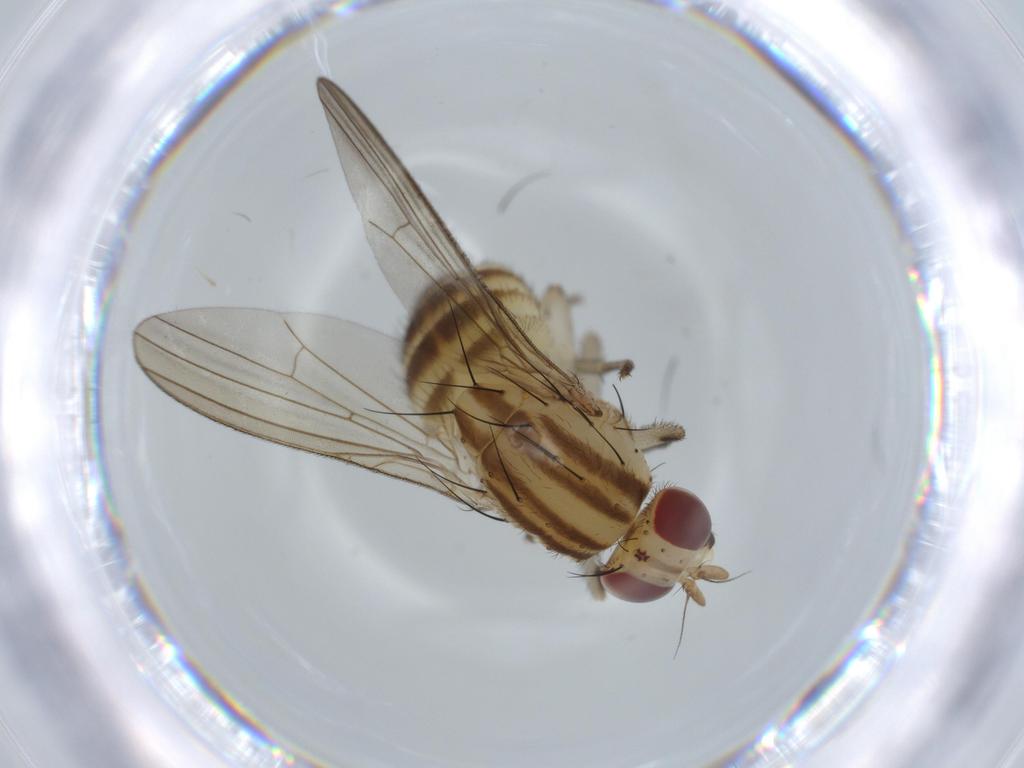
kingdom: Animalia
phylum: Arthropoda
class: Insecta
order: Diptera
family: Lauxaniidae
